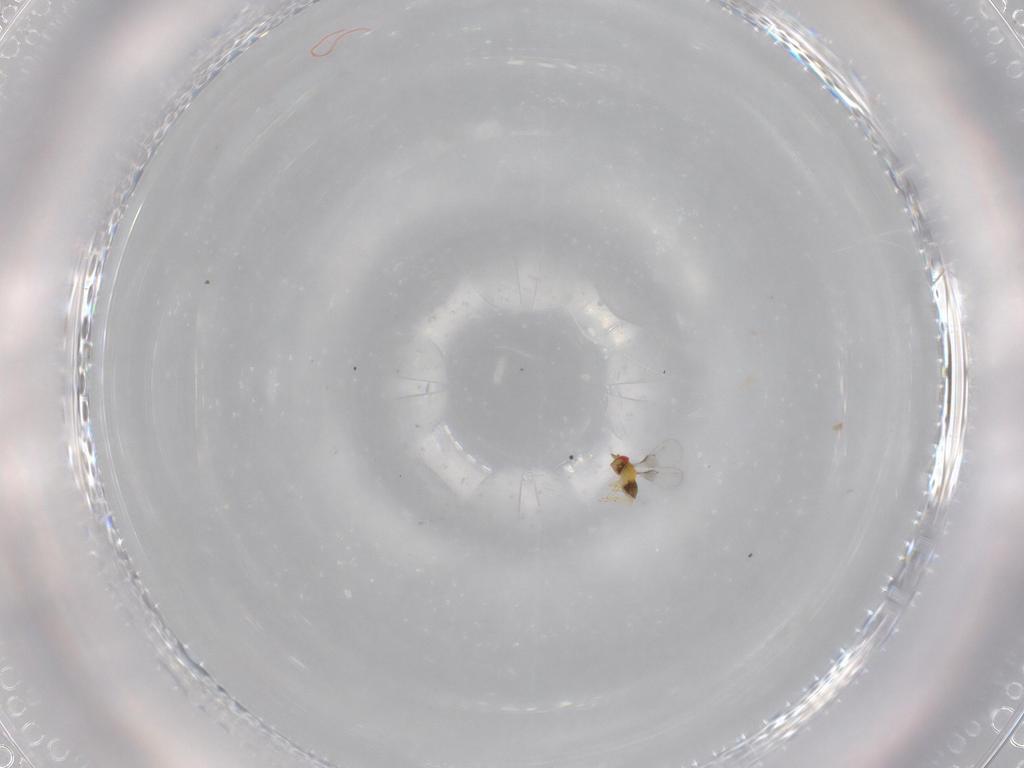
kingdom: Animalia
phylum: Arthropoda
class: Insecta
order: Hymenoptera
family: Trichogrammatidae
